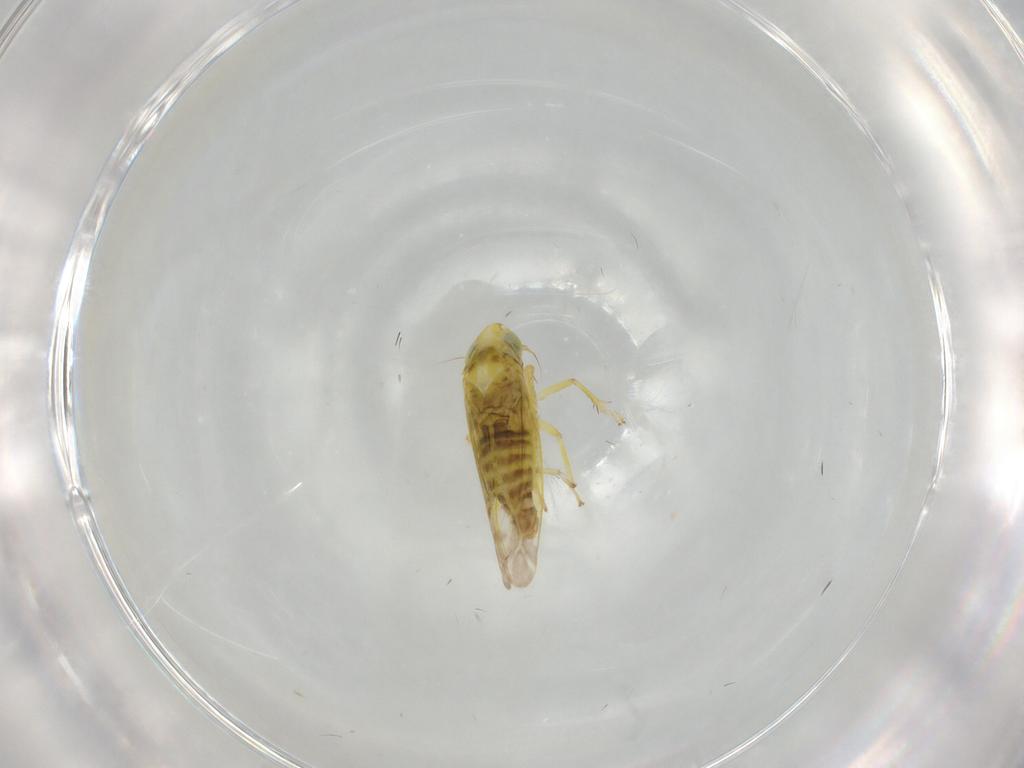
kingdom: Animalia
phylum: Arthropoda
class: Insecta
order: Hemiptera
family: Cicadellidae
